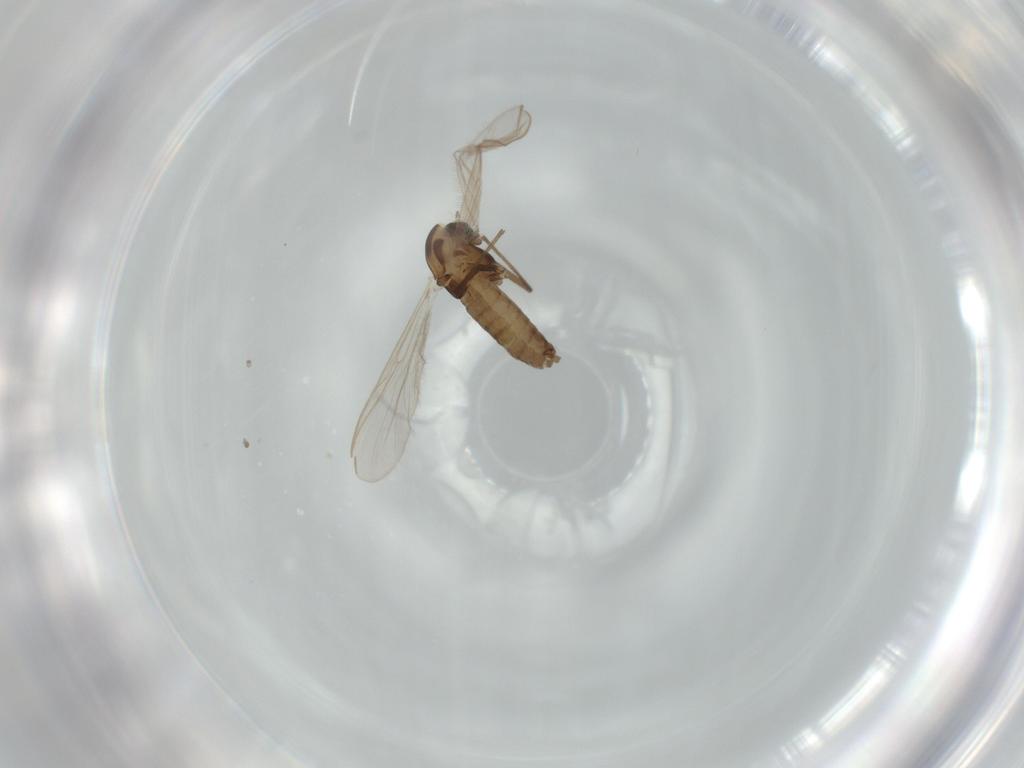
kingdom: Animalia
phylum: Arthropoda
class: Insecta
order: Diptera
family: Chironomidae
